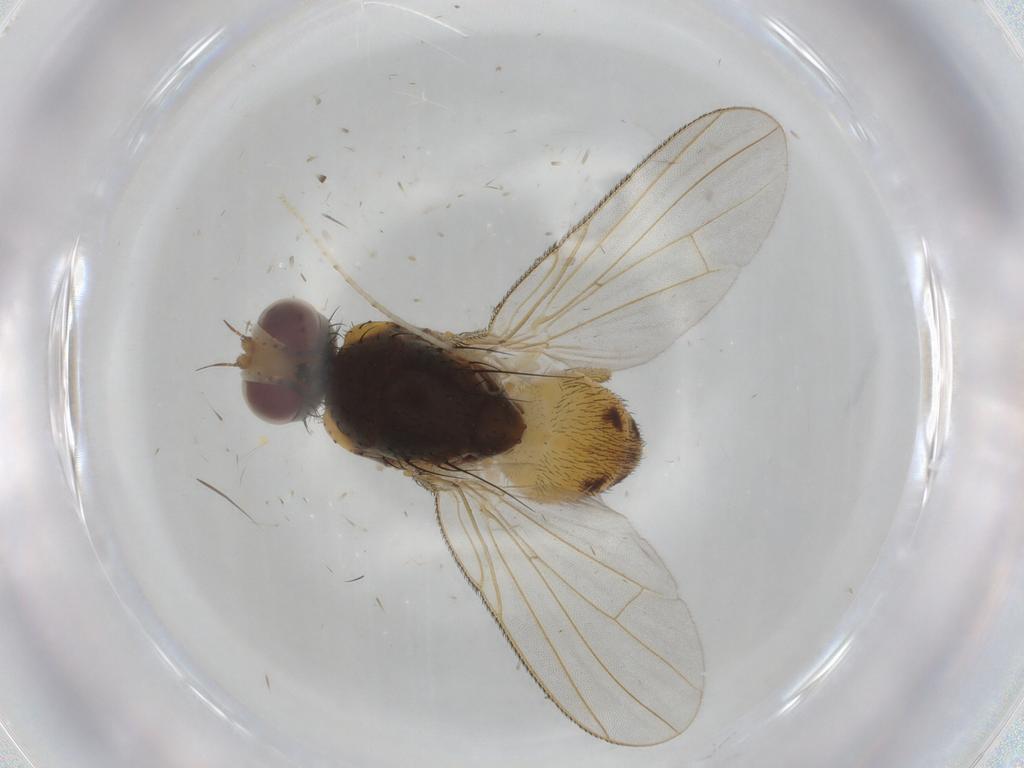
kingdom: Animalia
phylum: Arthropoda
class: Insecta
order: Diptera
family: Muscidae
